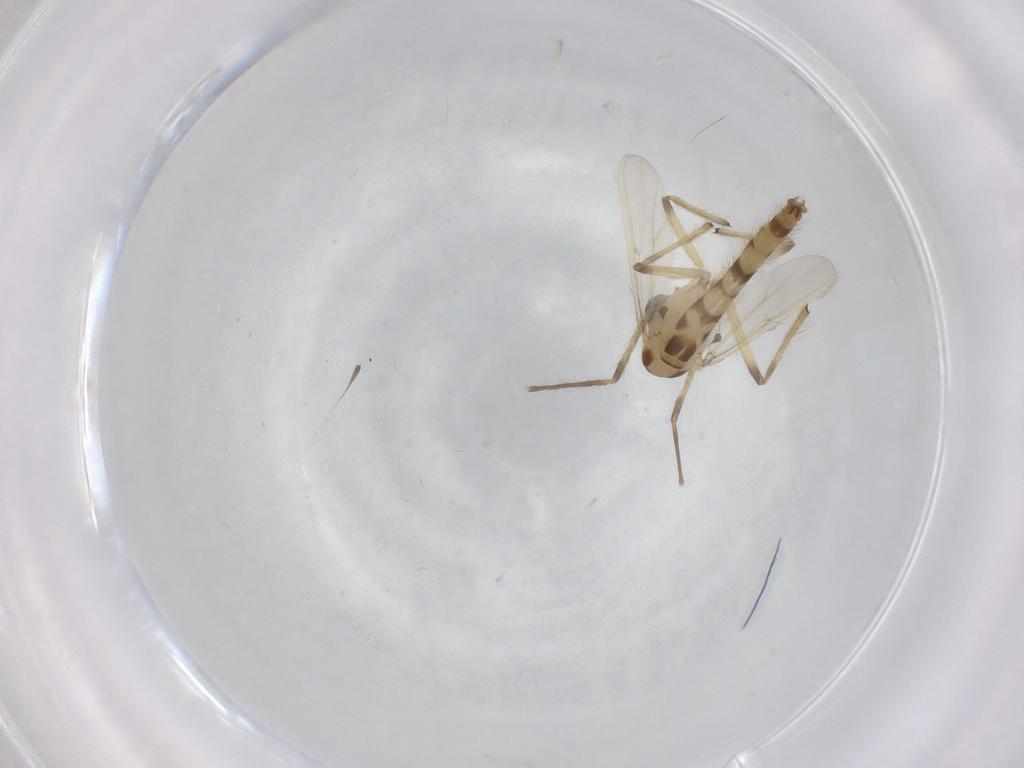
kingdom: Animalia
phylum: Arthropoda
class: Insecta
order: Diptera
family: Chironomidae
